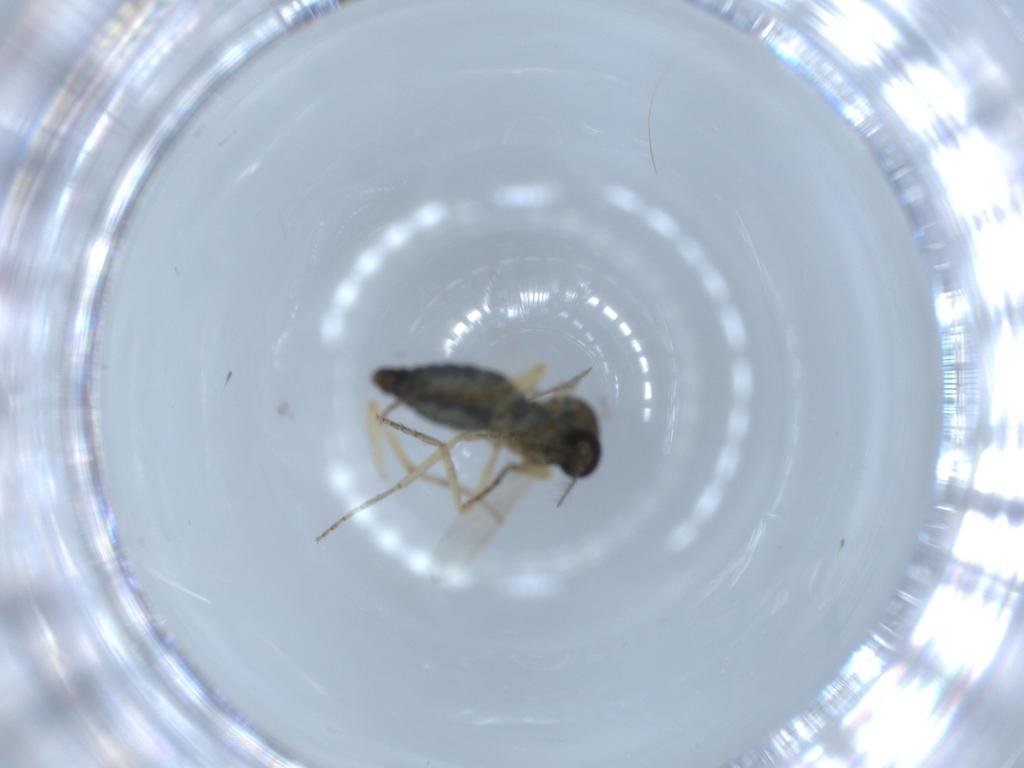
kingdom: Animalia
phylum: Arthropoda
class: Insecta
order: Diptera
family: Ceratopogonidae
